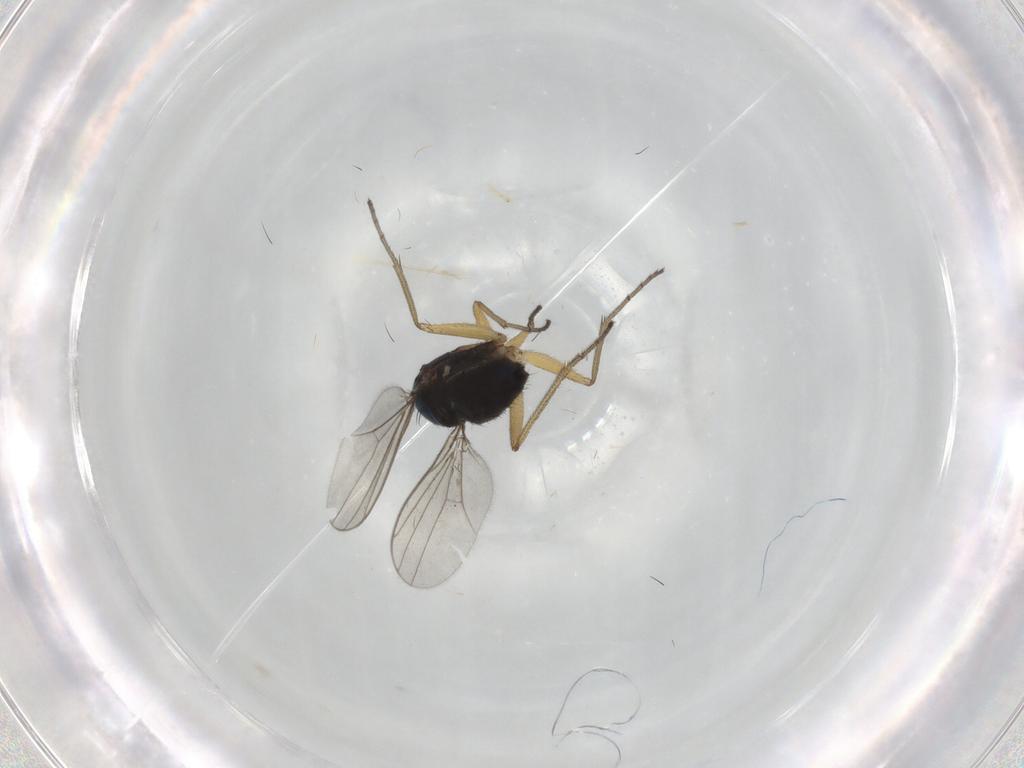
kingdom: Animalia
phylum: Arthropoda
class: Insecta
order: Diptera
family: Dolichopodidae
